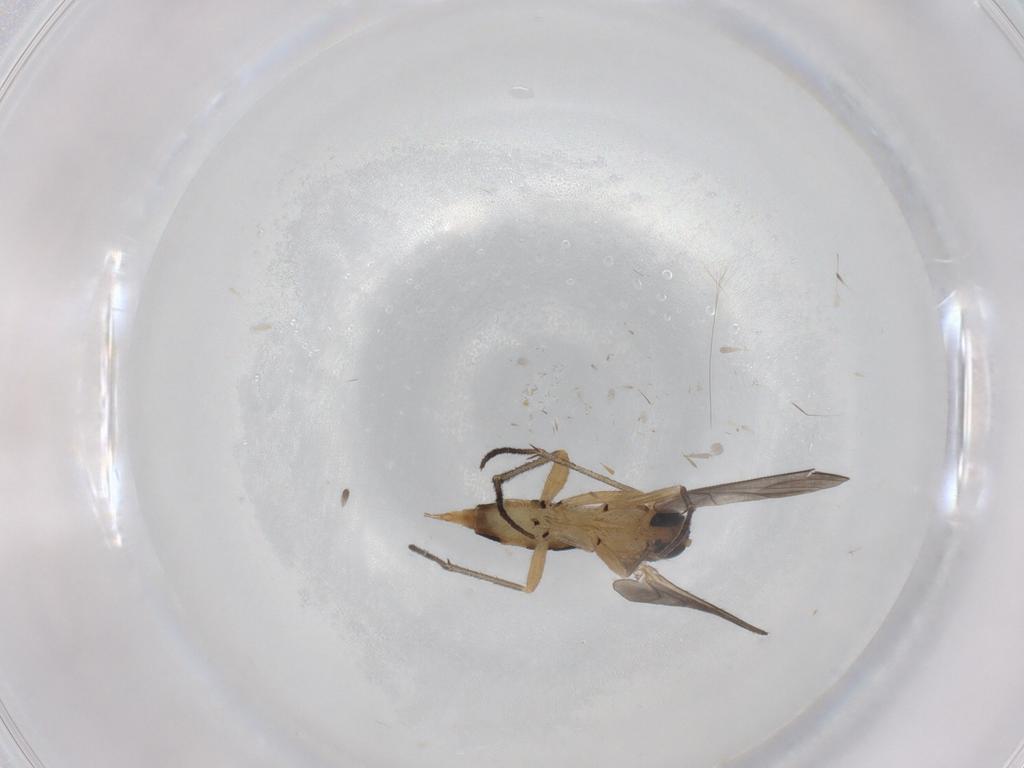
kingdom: Animalia
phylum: Arthropoda
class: Insecta
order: Diptera
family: Sciaridae
